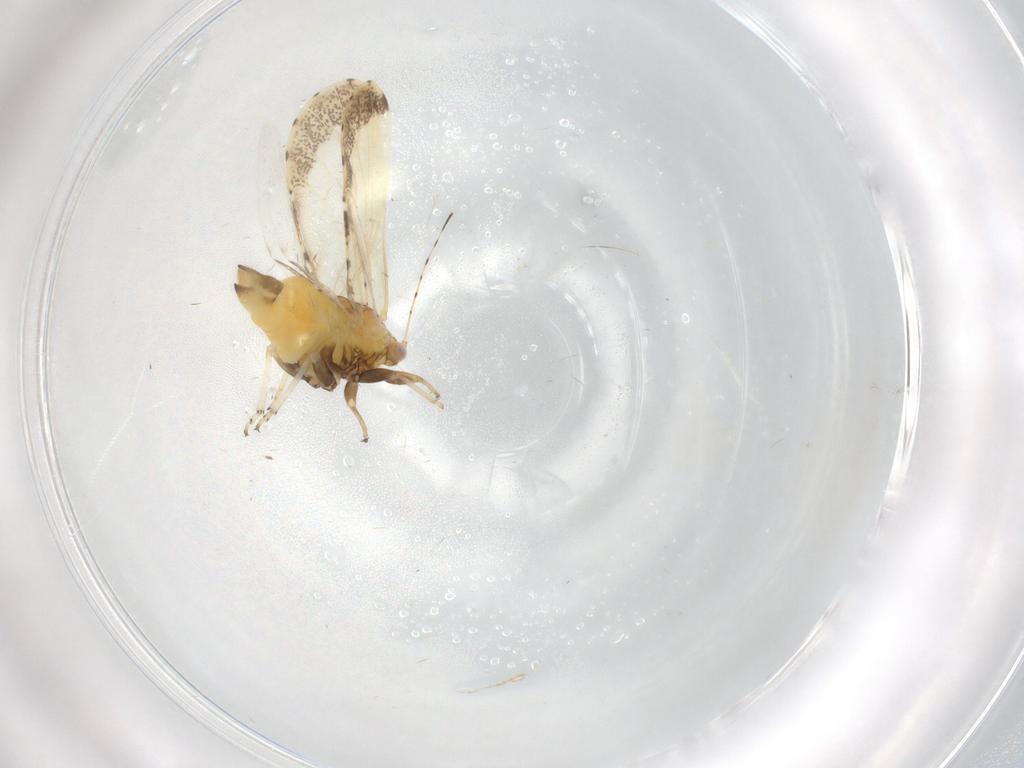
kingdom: Animalia
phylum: Arthropoda
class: Insecta
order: Hemiptera
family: Psyllidae
